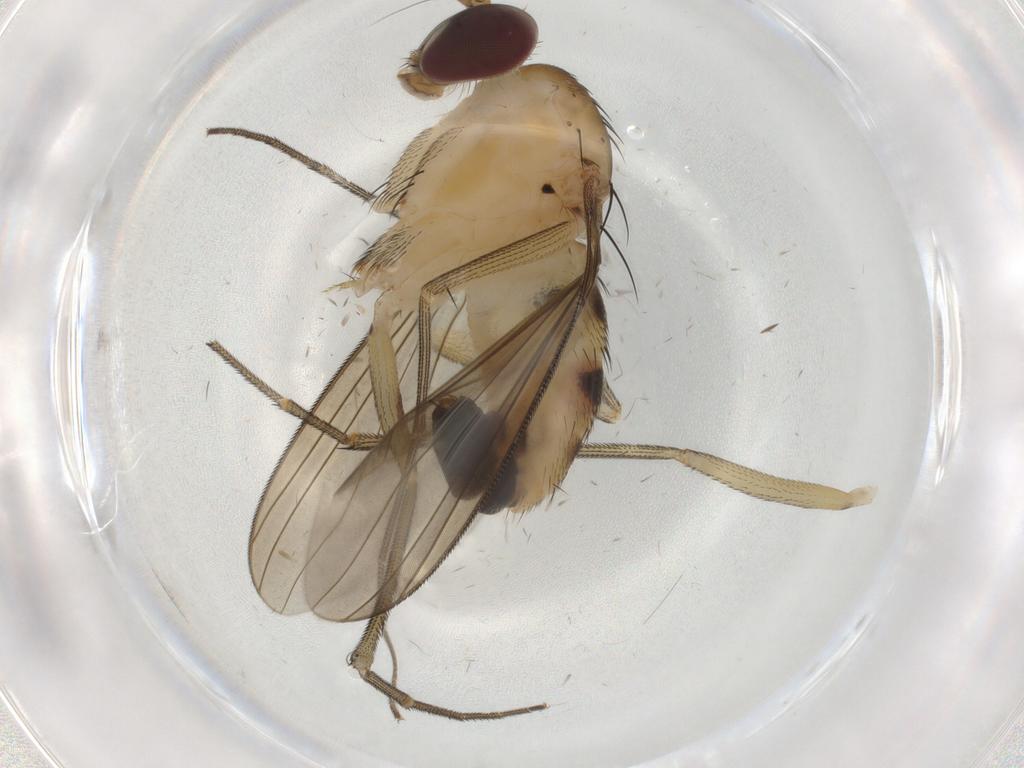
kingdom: Animalia
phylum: Arthropoda
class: Insecta
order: Diptera
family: Dolichopodidae
